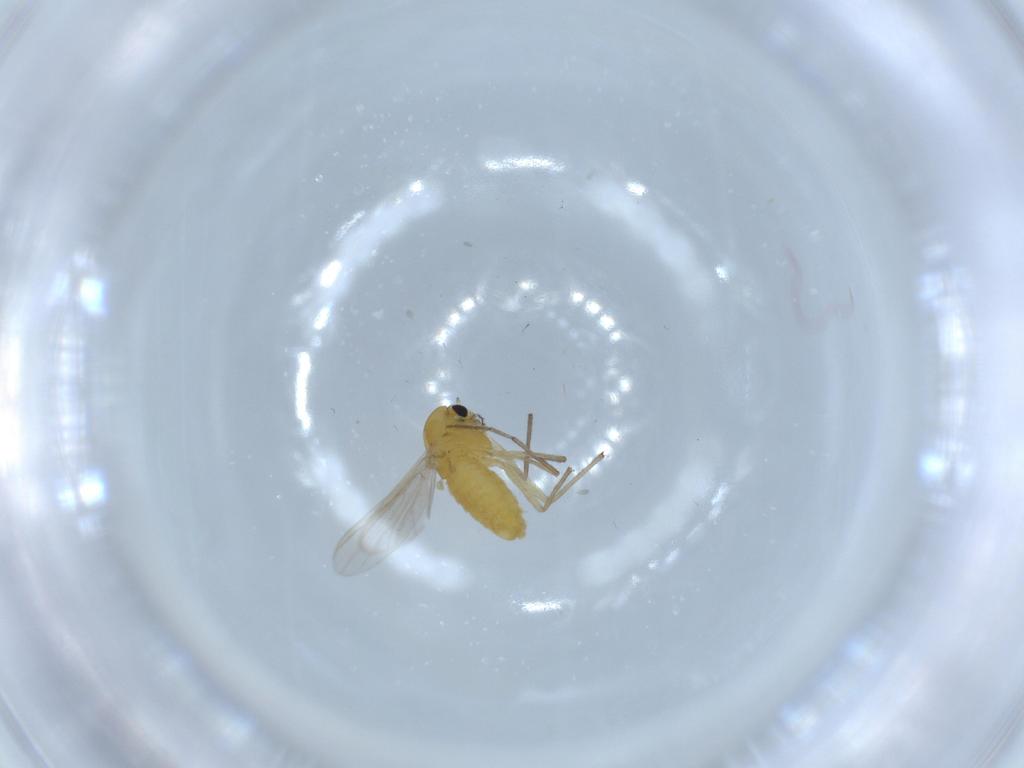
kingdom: Animalia
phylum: Arthropoda
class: Insecta
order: Diptera
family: Chironomidae
